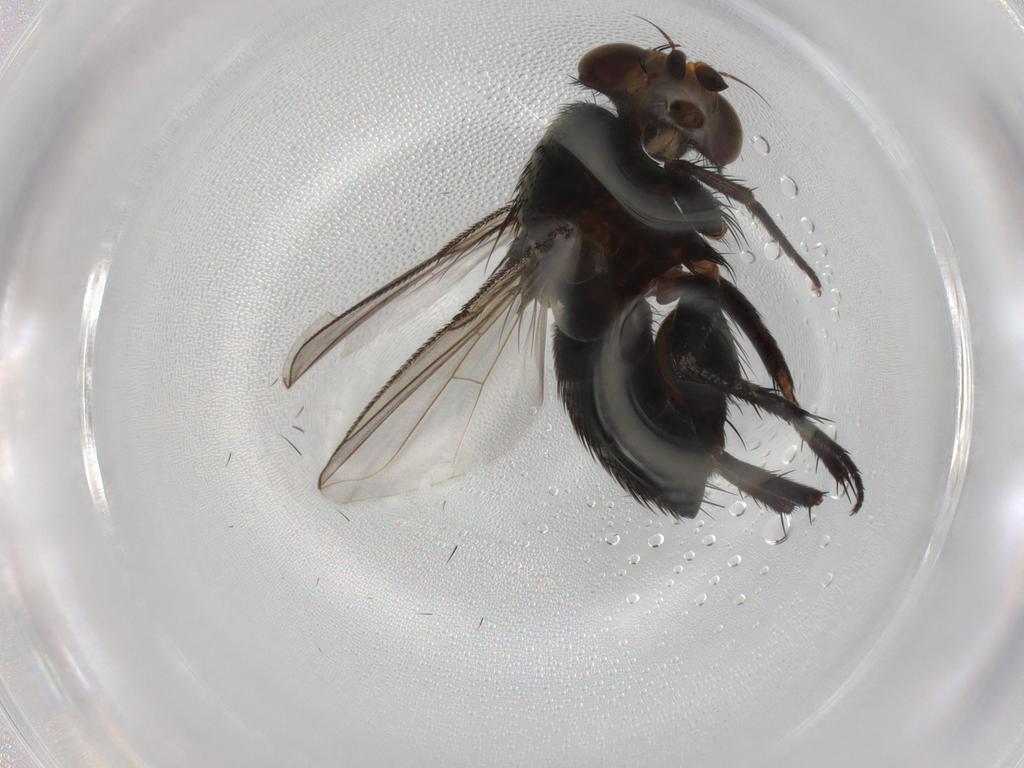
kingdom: Animalia
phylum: Arthropoda
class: Insecta
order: Diptera
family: Tachinidae
